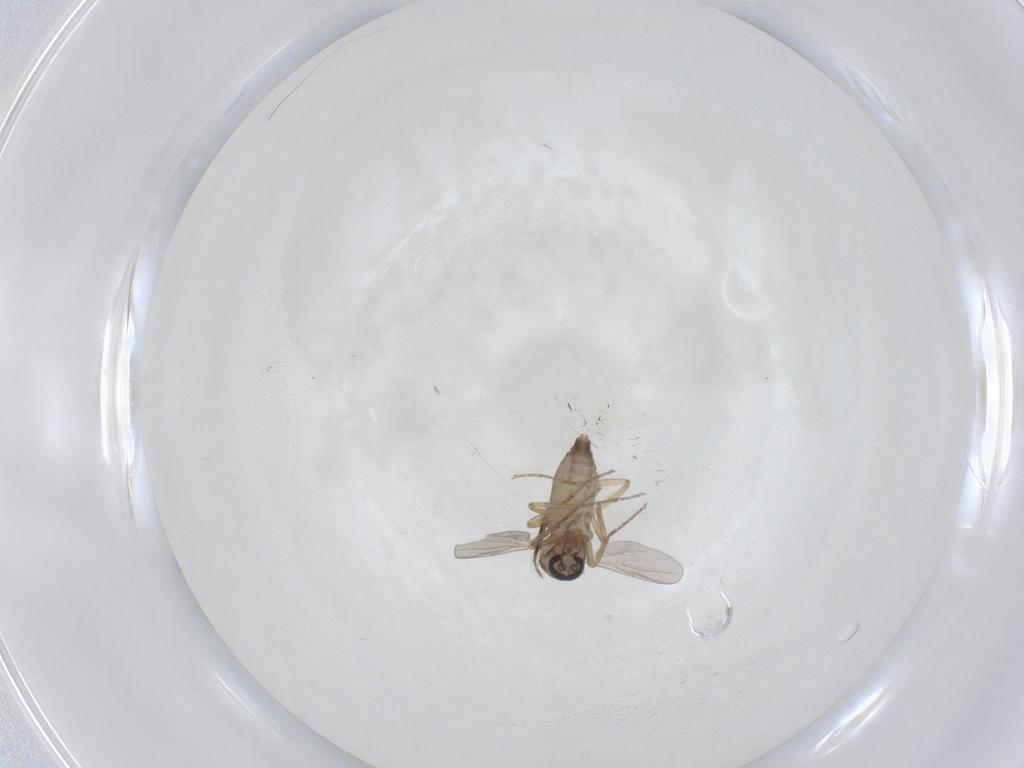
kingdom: Animalia
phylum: Arthropoda
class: Insecta
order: Diptera
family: Ceratopogonidae
